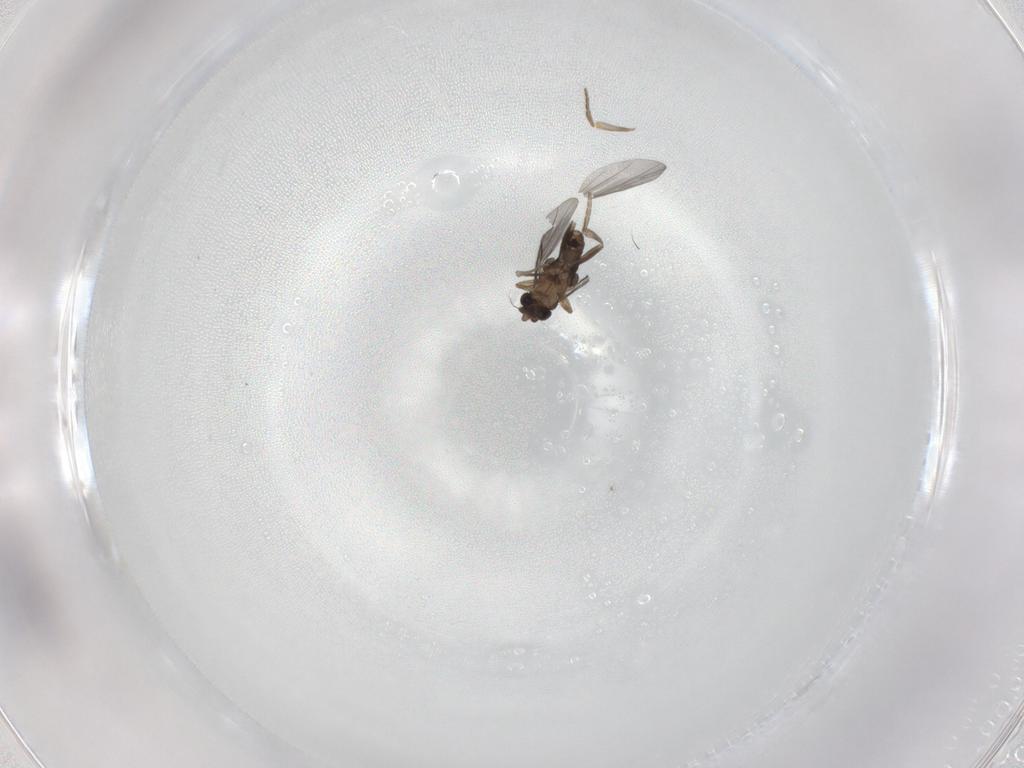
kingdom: Animalia
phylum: Arthropoda
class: Insecta
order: Diptera
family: Sphaeroceridae
